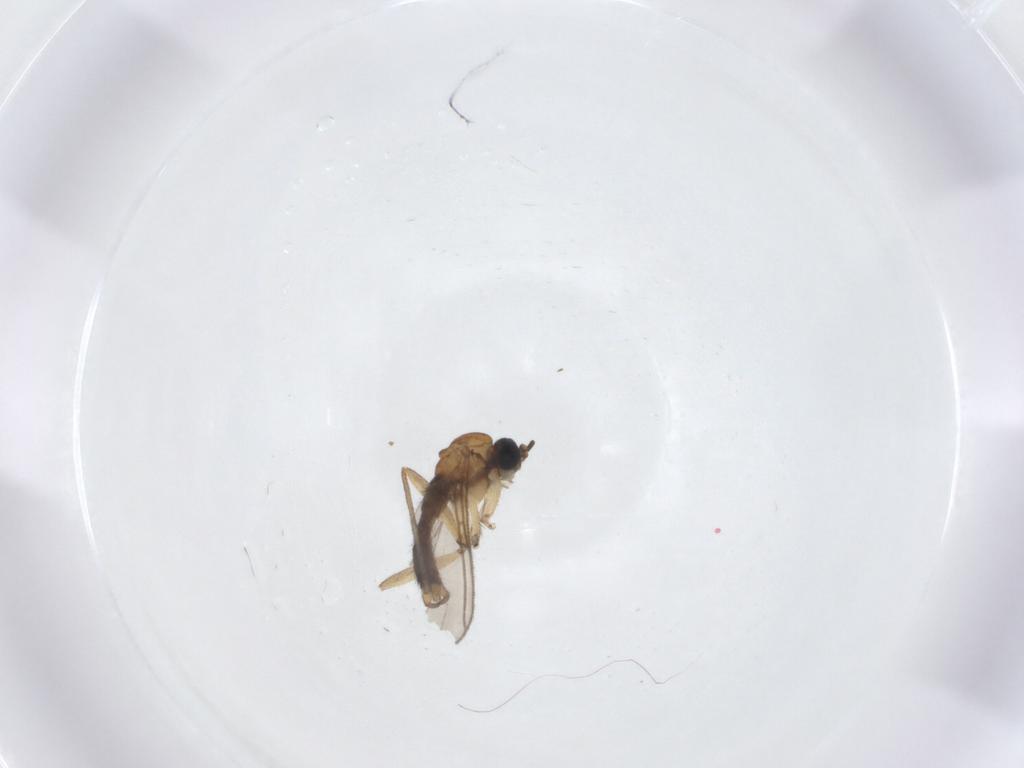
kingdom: Animalia
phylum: Arthropoda
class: Insecta
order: Diptera
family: Sciaridae
